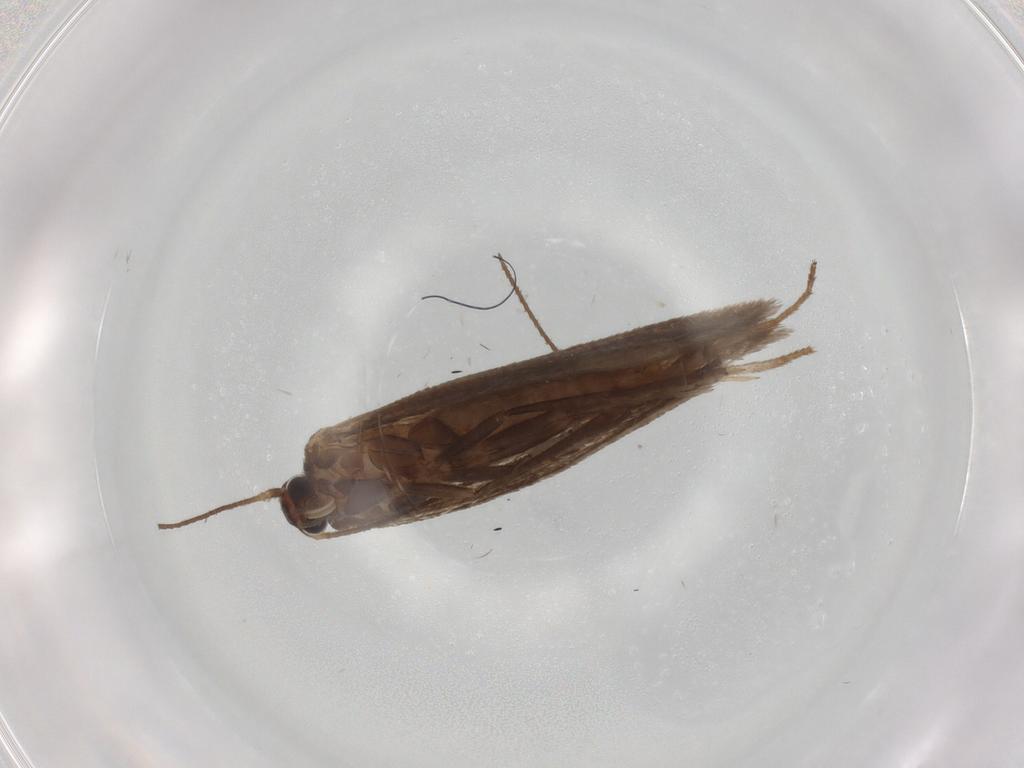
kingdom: Animalia
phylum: Arthropoda
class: Insecta
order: Lepidoptera
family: Limacodidae
